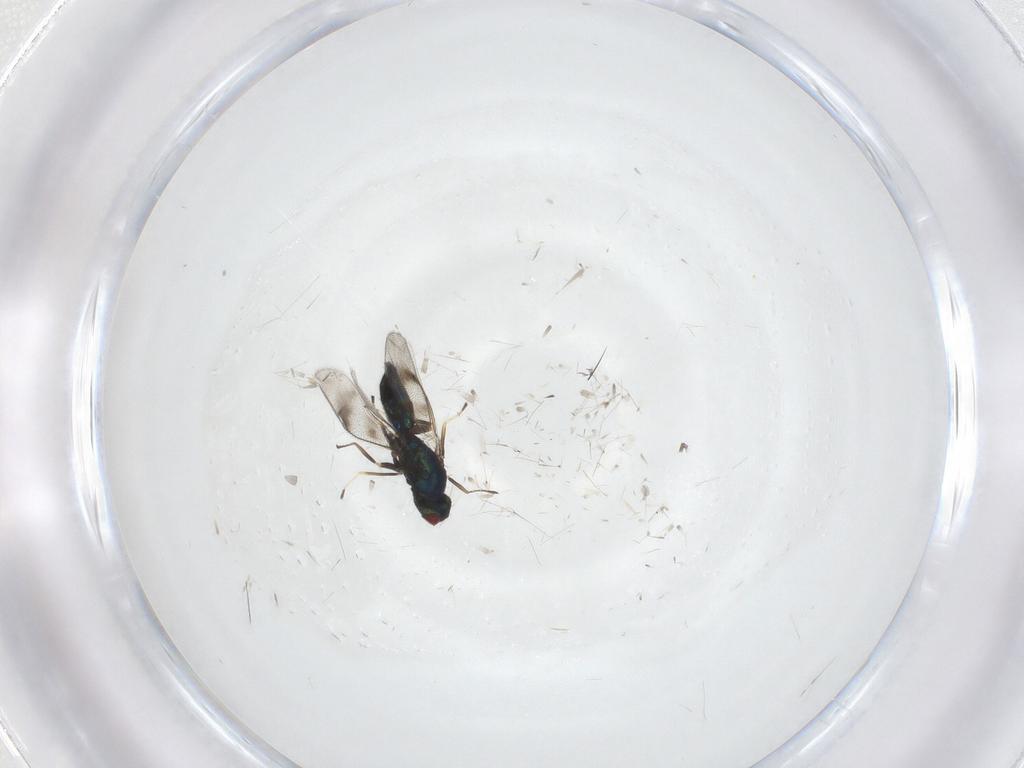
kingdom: Animalia
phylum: Arthropoda
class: Insecta
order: Hymenoptera
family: Eulophidae
